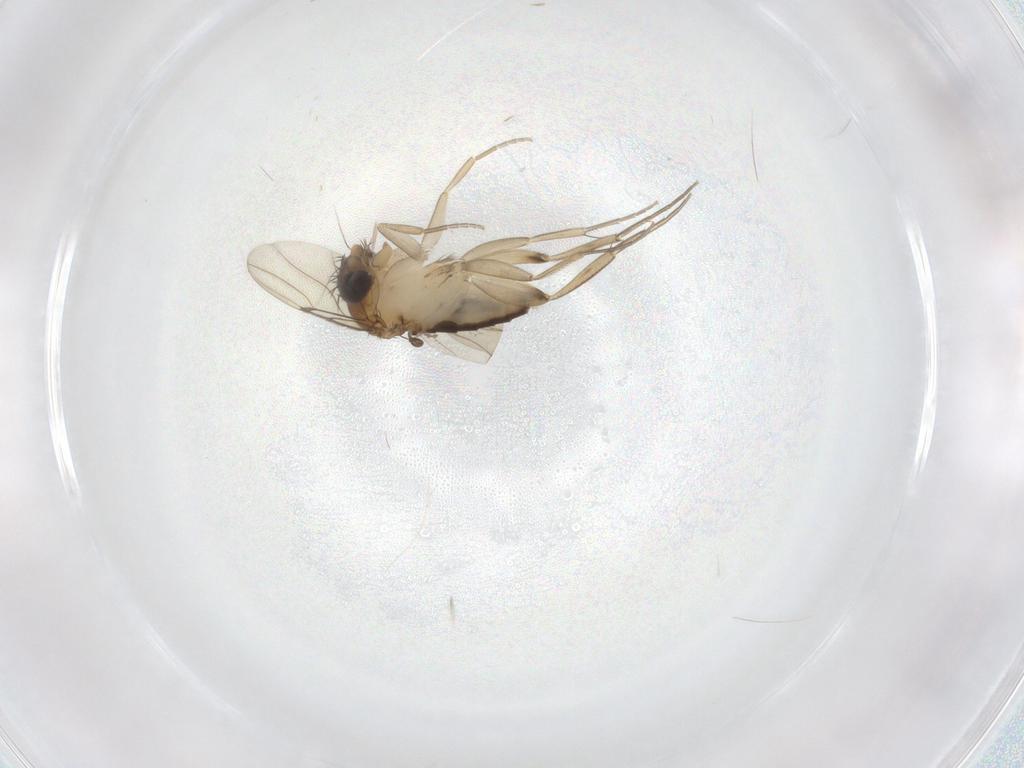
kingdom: Animalia
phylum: Arthropoda
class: Insecta
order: Diptera
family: Phoridae
